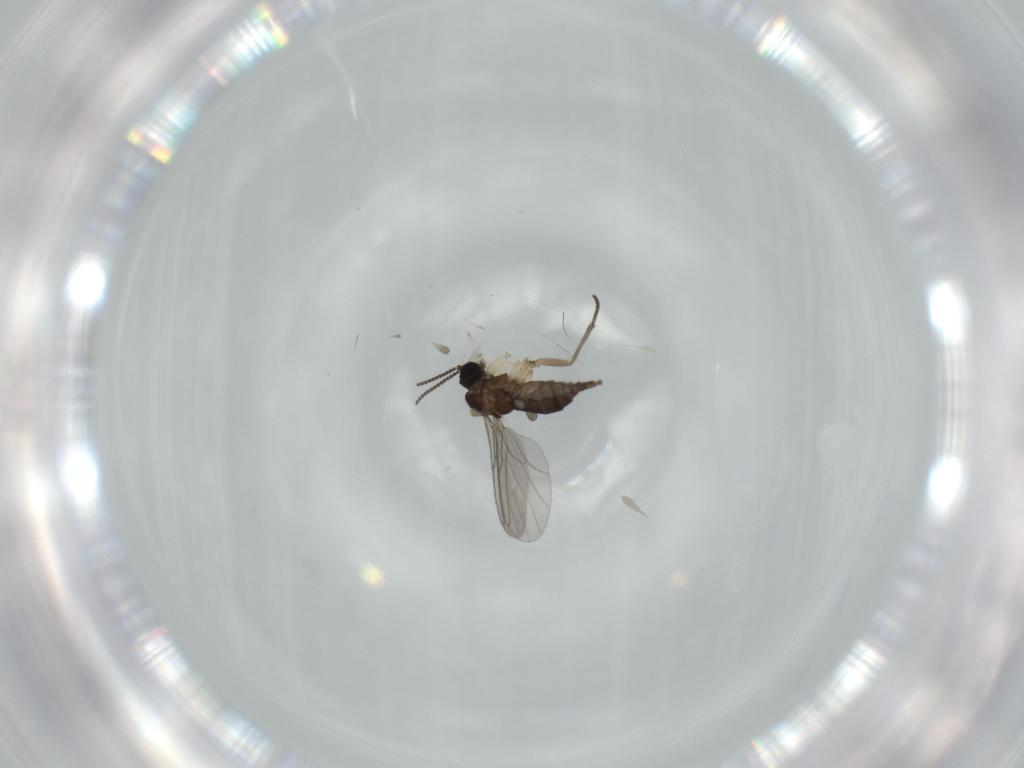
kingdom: Animalia
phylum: Arthropoda
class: Insecta
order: Diptera
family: Sciaridae
